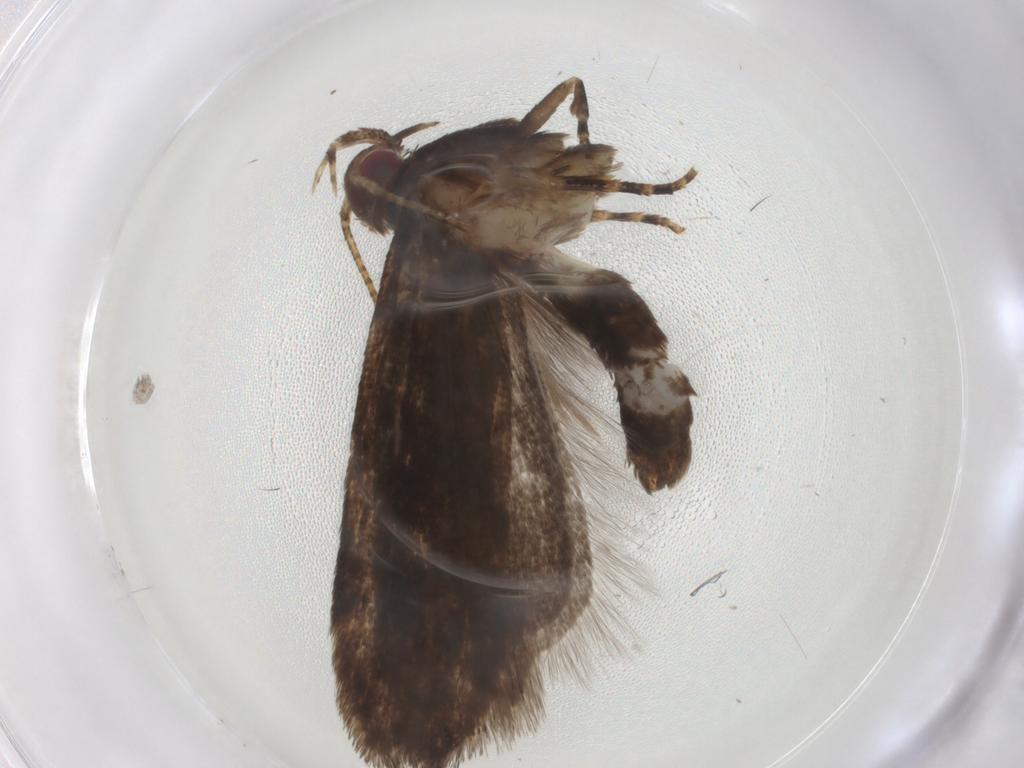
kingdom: Animalia
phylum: Arthropoda
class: Insecta
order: Lepidoptera
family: Cosmopterigidae
